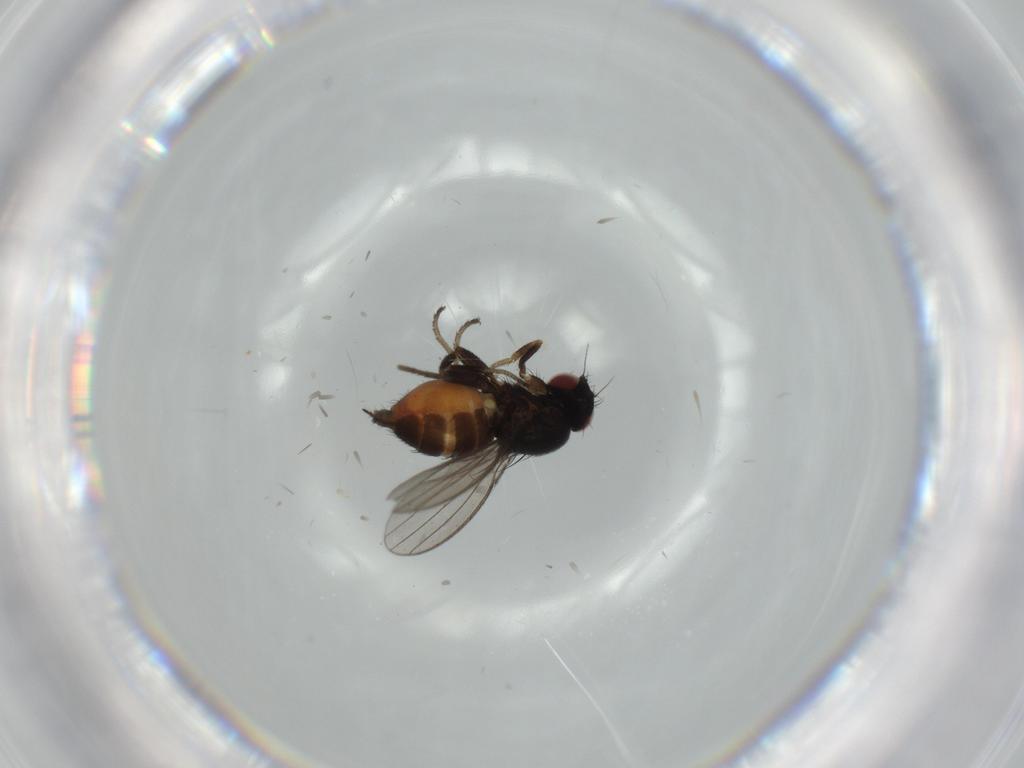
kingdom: Animalia
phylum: Arthropoda
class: Insecta
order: Diptera
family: Milichiidae
